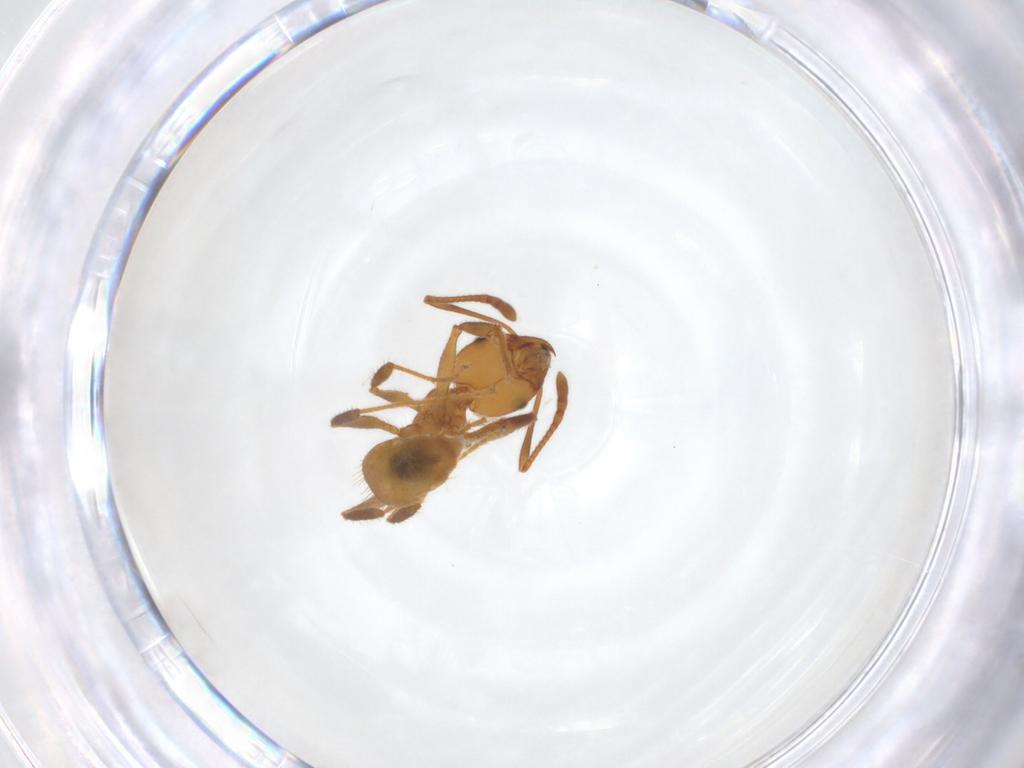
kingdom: Animalia
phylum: Arthropoda
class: Insecta
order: Hymenoptera
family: Formicidae
